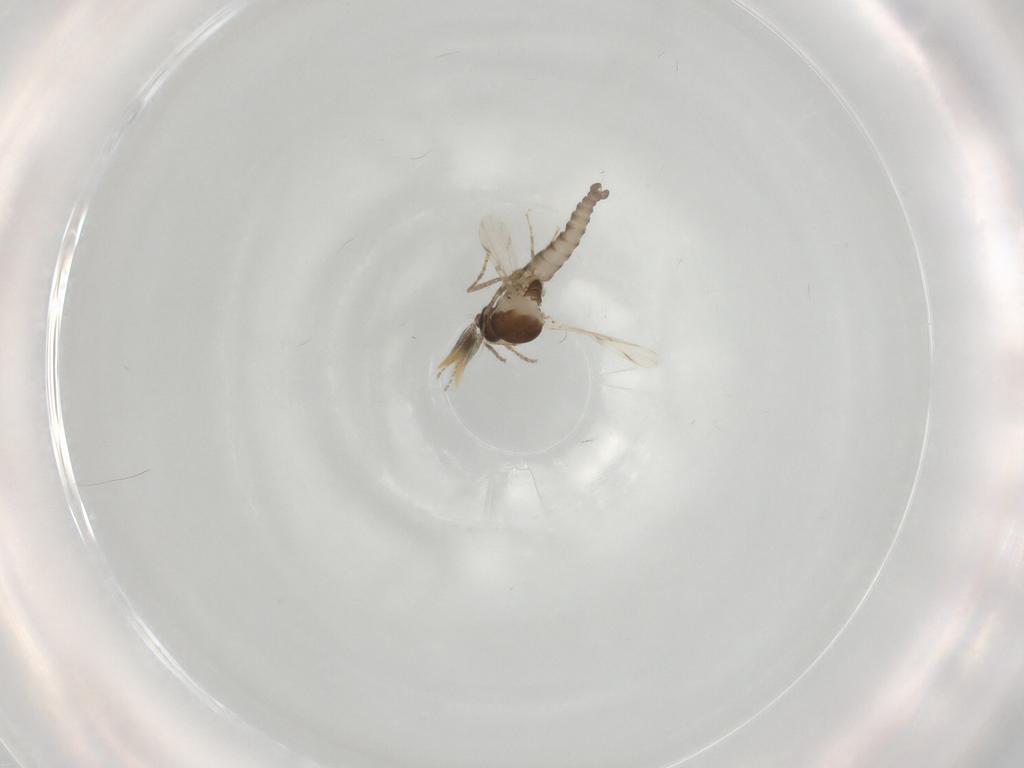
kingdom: Animalia
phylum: Arthropoda
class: Insecta
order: Diptera
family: Ceratopogonidae
